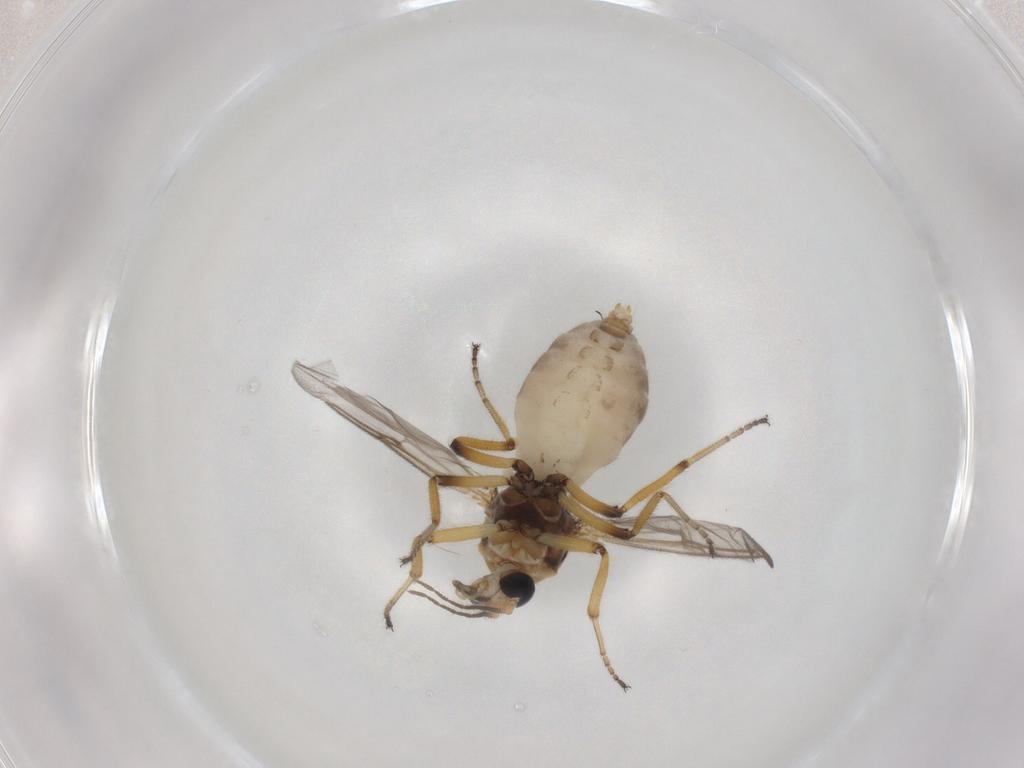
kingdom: Animalia
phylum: Arthropoda
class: Insecta
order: Diptera
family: Ceratopogonidae
